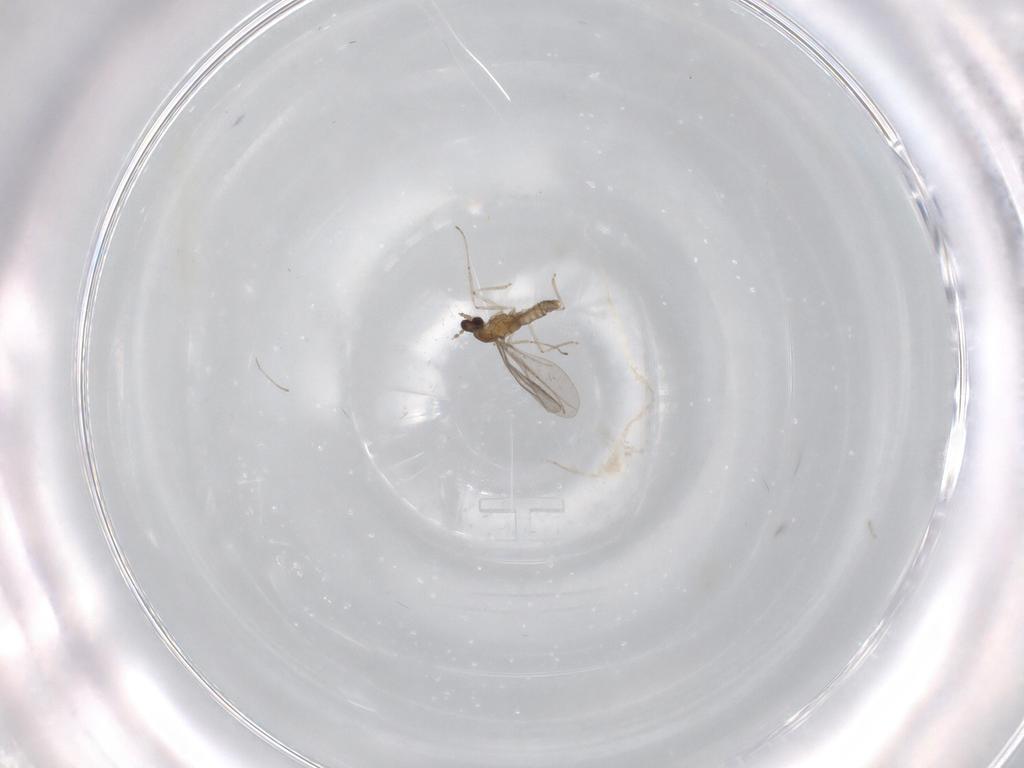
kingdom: Animalia
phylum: Arthropoda
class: Insecta
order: Diptera
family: Cecidomyiidae
